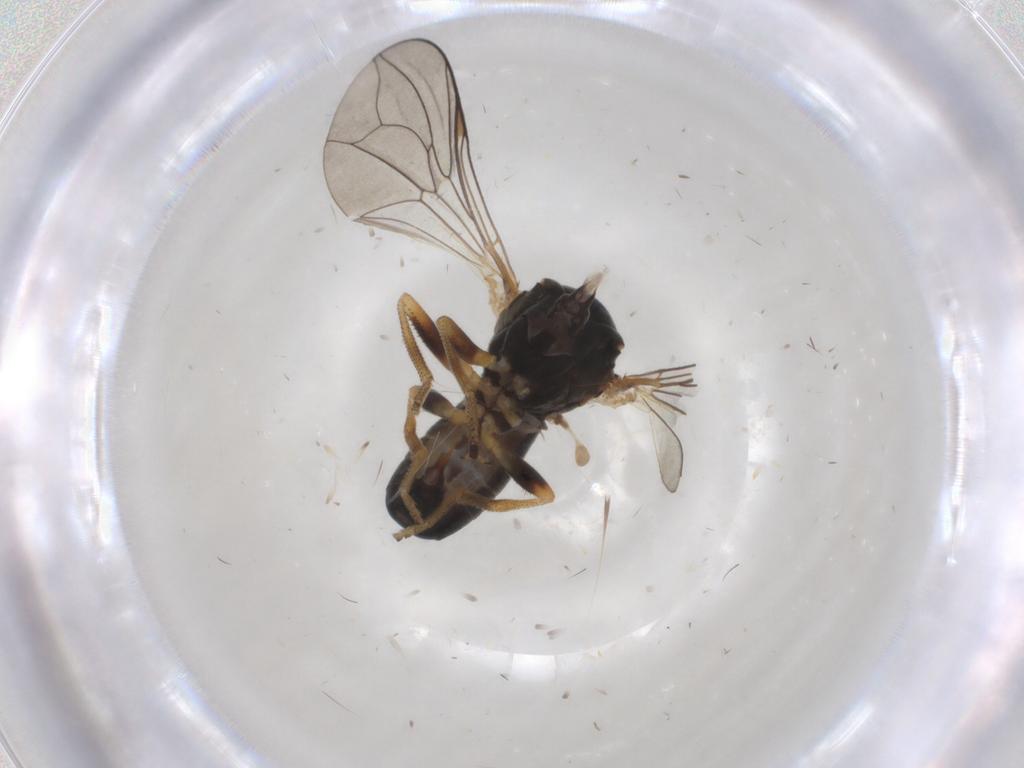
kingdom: Animalia
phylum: Arthropoda
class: Insecta
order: Diptera
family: Pipunculidae
